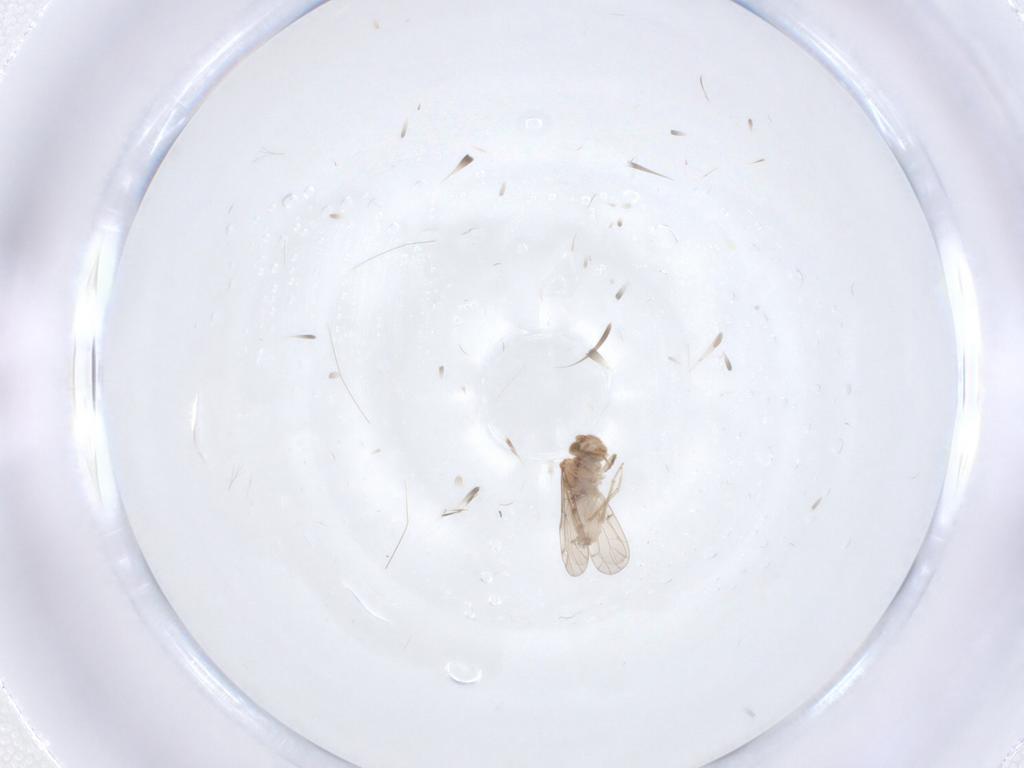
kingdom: Animalia
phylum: Arthropoda
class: Insecta
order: Psocodea
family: Ectopsocidae
